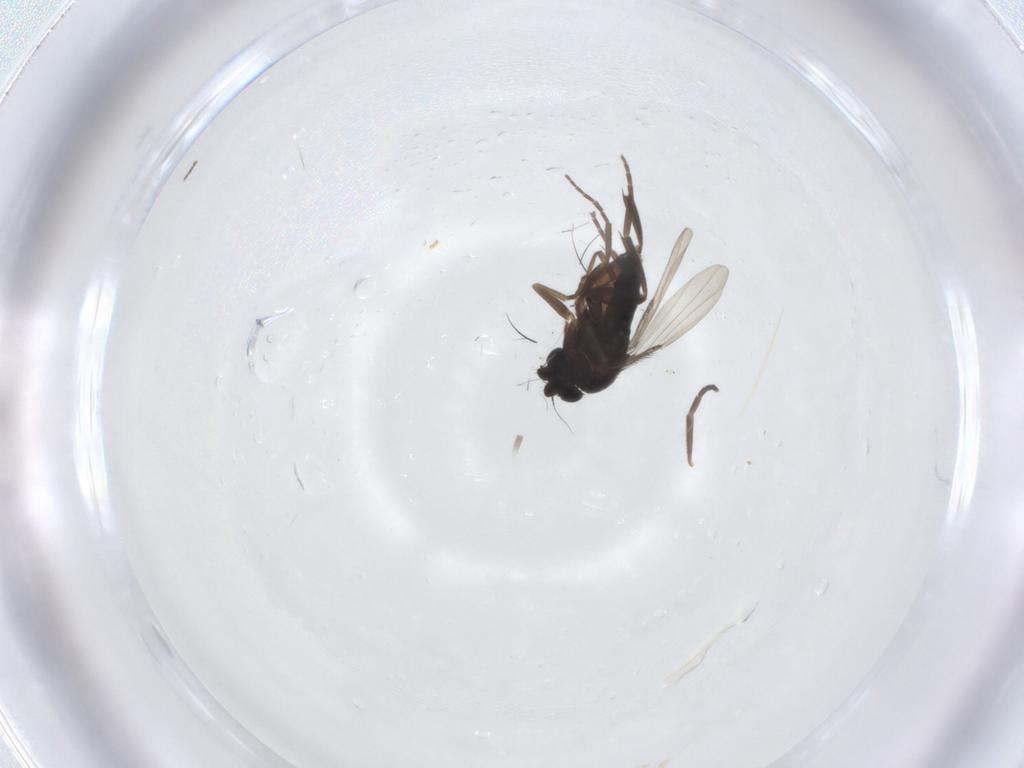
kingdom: Animalia
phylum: Arthropoda
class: Insecta
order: Diptera
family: Phoridae
